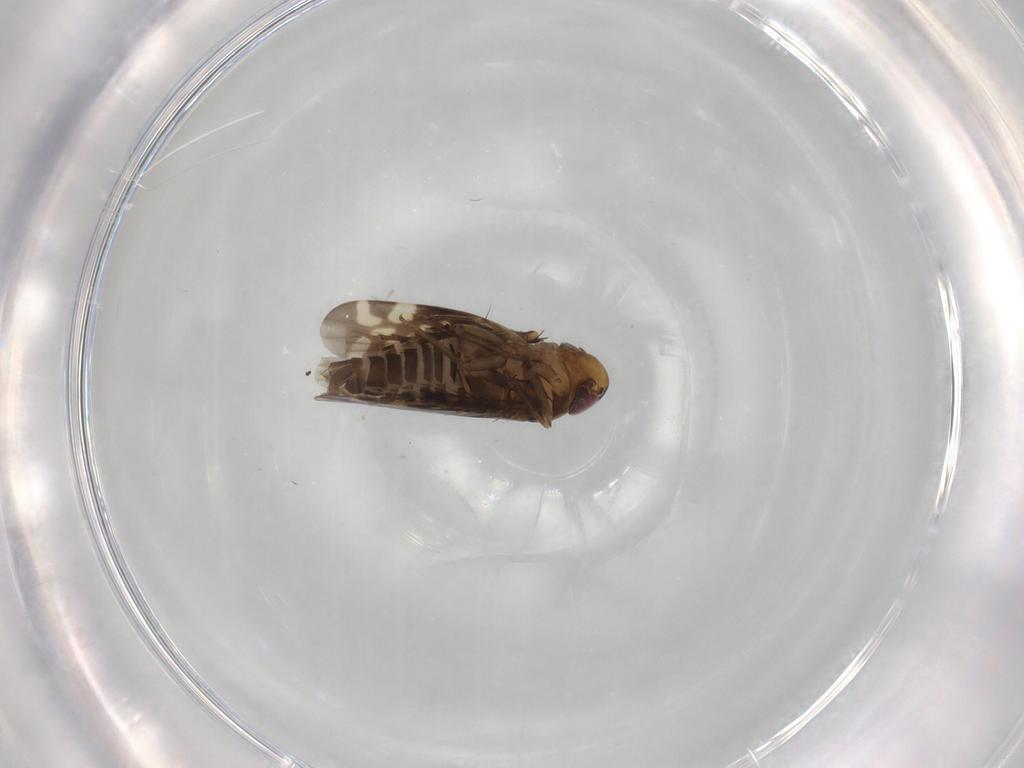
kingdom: Animalia
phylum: Arthropoda
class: Insecta
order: Hemiptera
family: Cicadellidae
